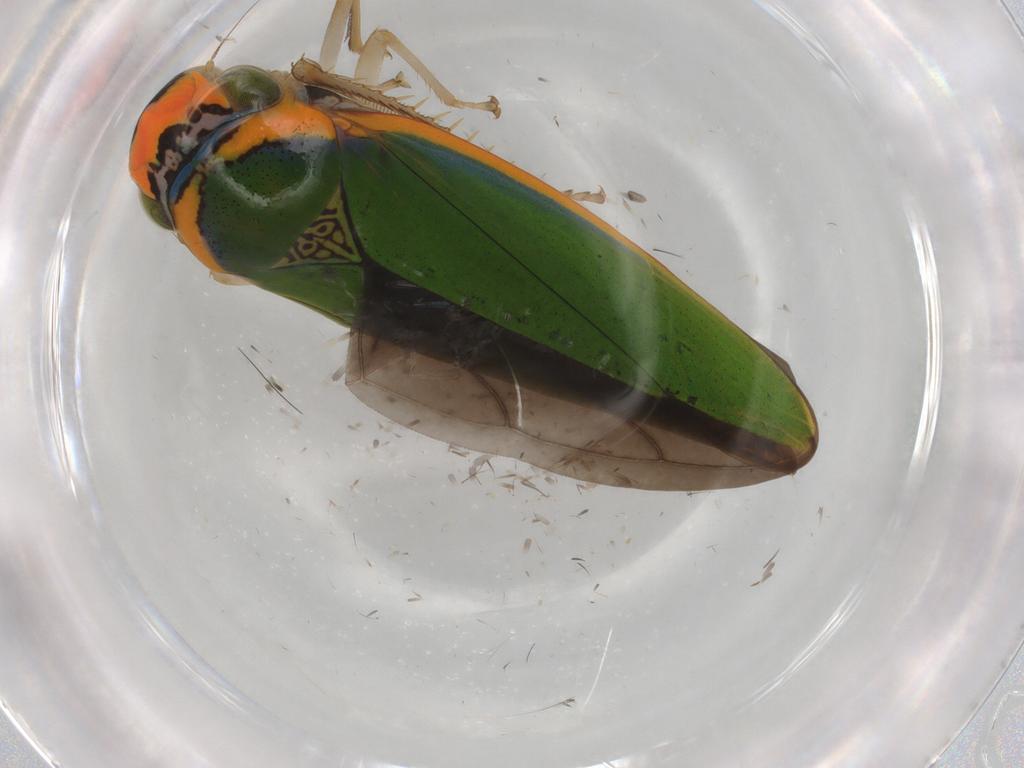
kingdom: Animalia
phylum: Arthropoda
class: Insecta
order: Hemiptera
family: Cicadellidae
